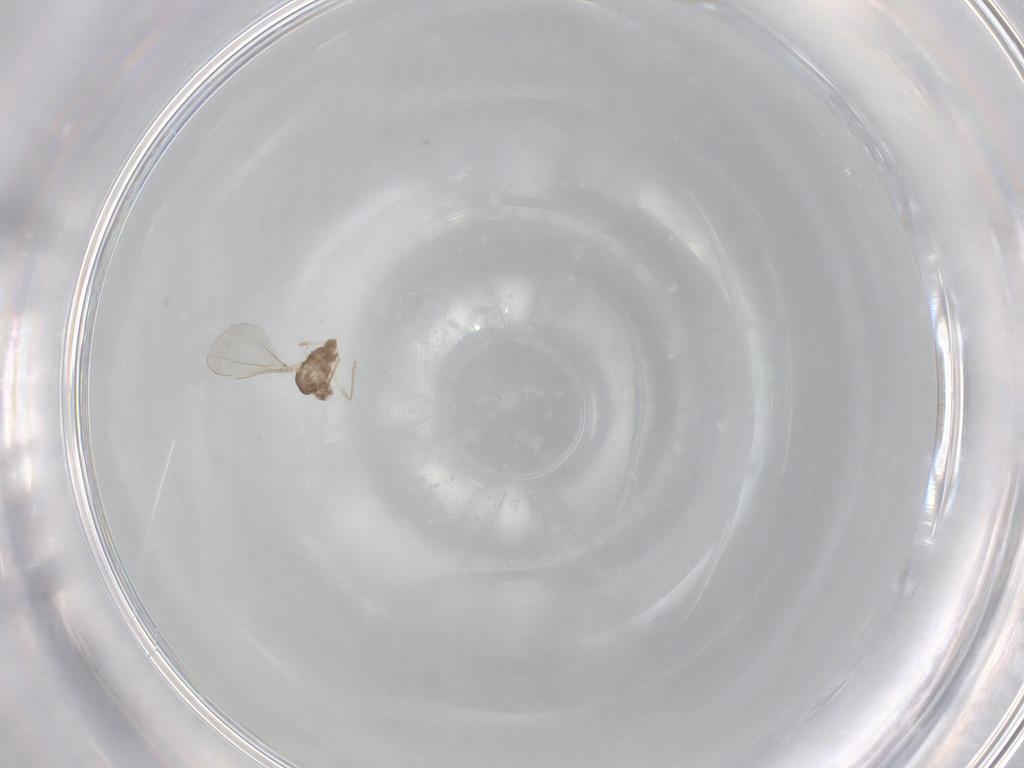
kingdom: Animalia
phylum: Arthropoda
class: Insecta
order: Diptera
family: Cecidomyiidae
